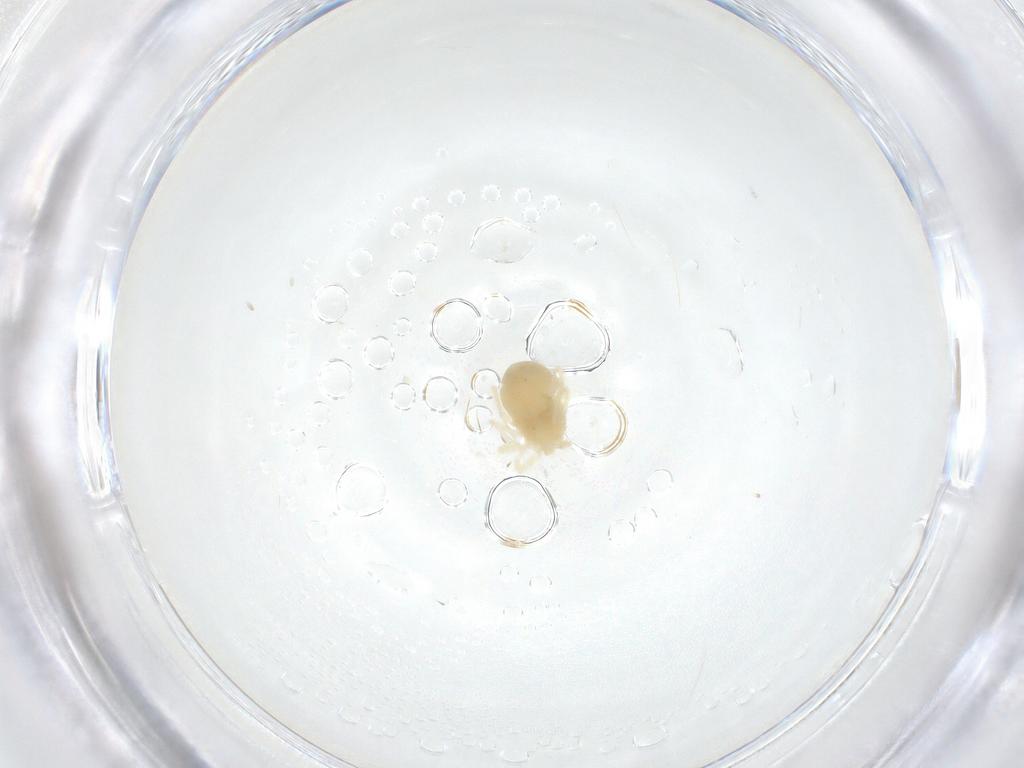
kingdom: Animalia
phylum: Arthropoda
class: Arachnida
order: Trombidiformes
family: Anystidae
